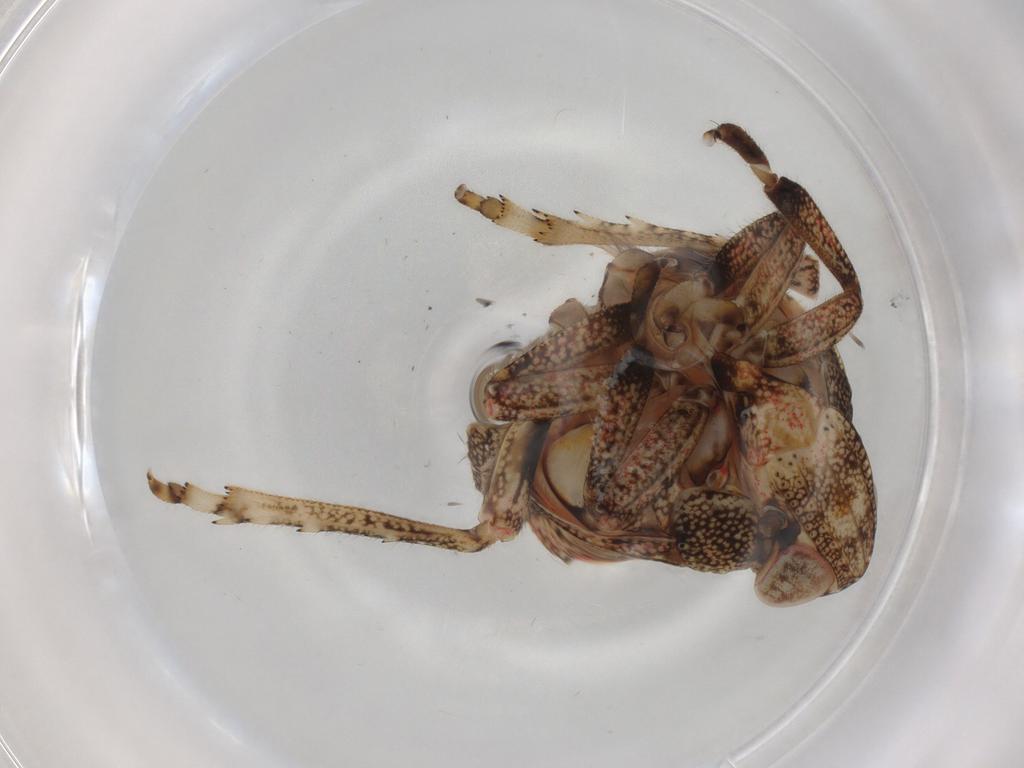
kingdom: Animalia
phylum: Arthropoda
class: Insecta
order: Hemiptera
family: Tropiduchidae
